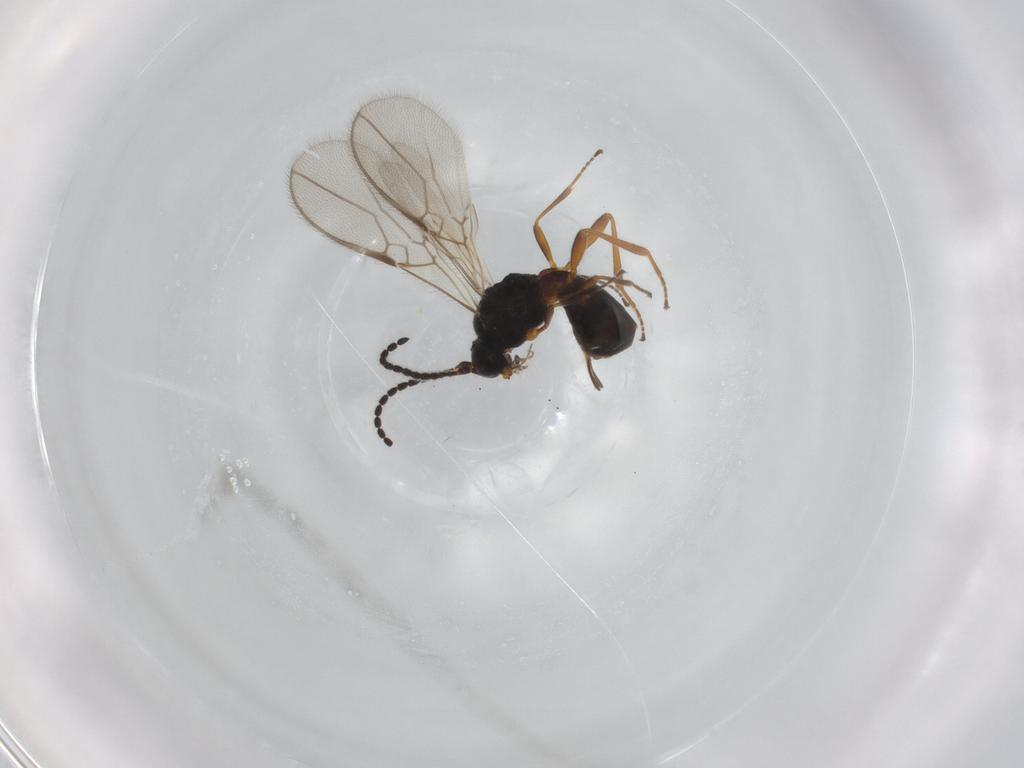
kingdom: Animalia
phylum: Arthropoda
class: Insecta
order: Hymenoptera
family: Braconidae
